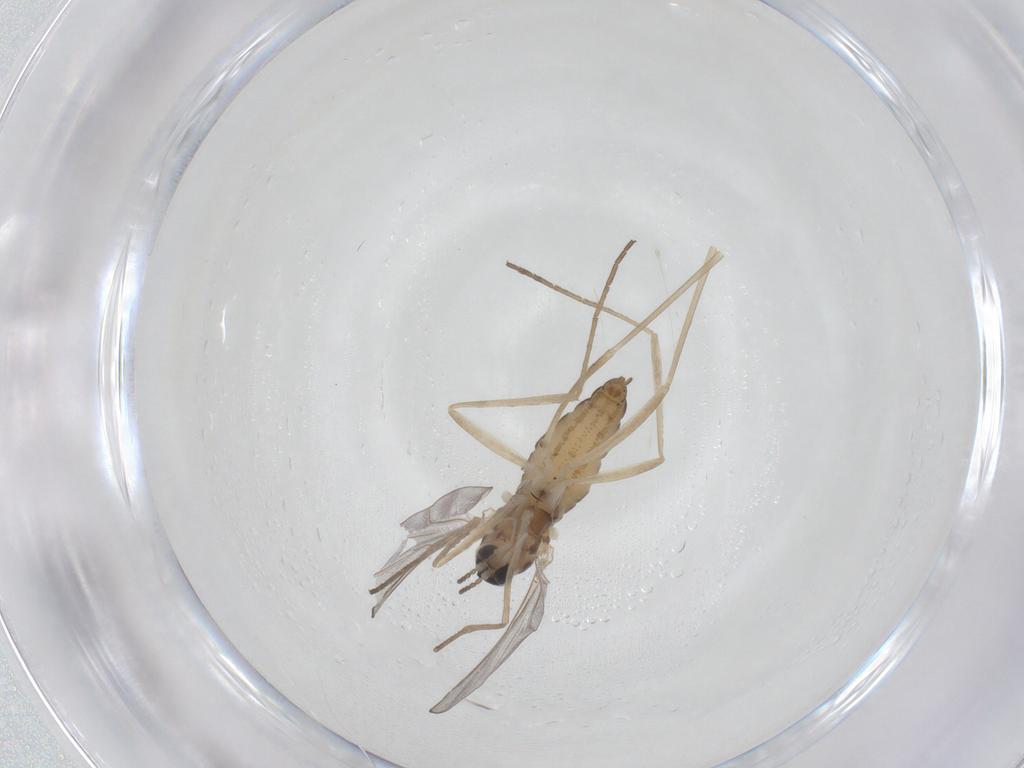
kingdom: Animalia
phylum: Arthropoda
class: Insecta
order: Diptera
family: Cecidomyiidae
